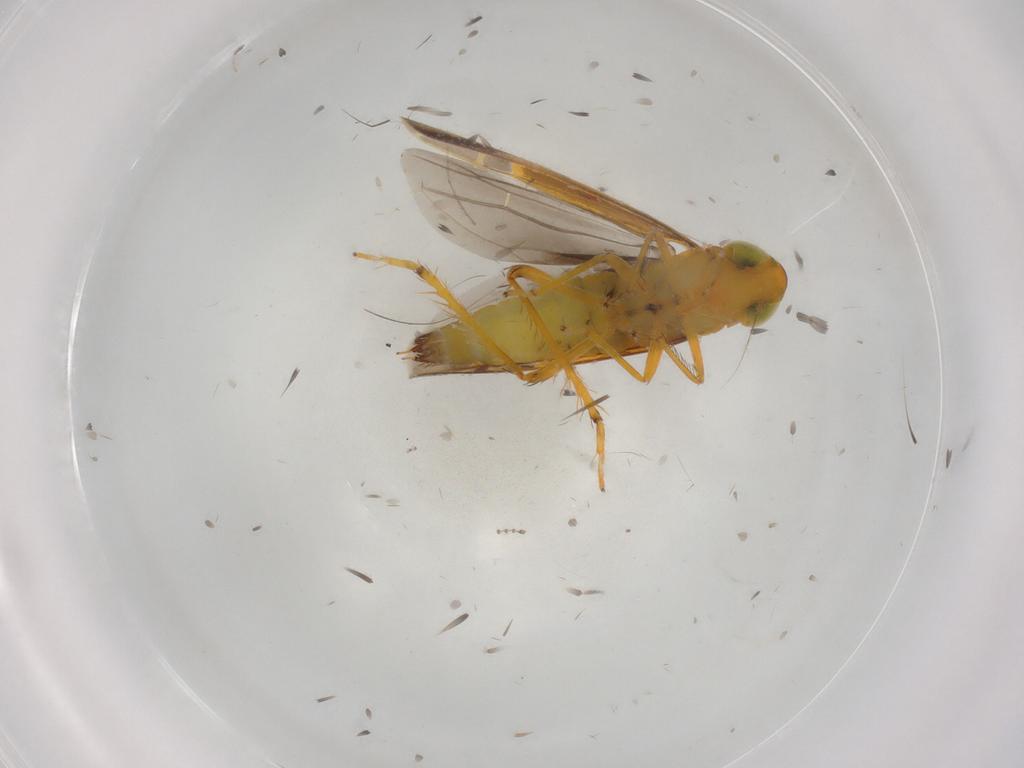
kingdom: Animalia
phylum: Arthropoda
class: Insecta
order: Hemiptera
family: Cicadellidae
